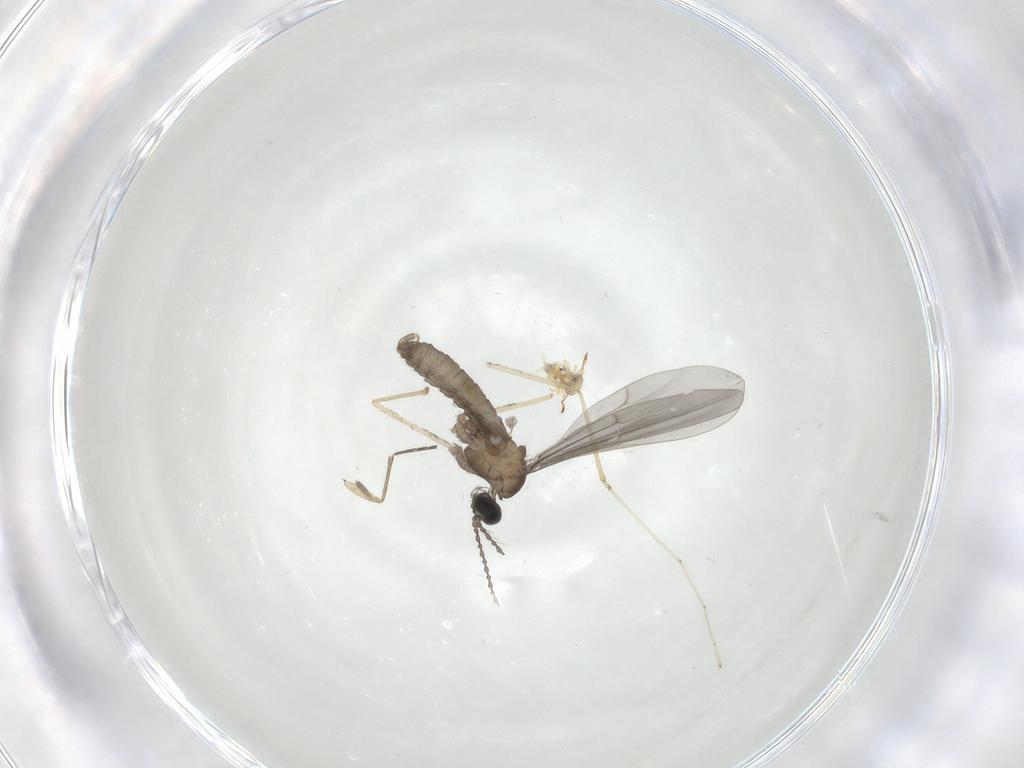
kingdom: Animalia
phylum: Arthropoda
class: Insecta
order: Diptera
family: Cecidomyiidae
